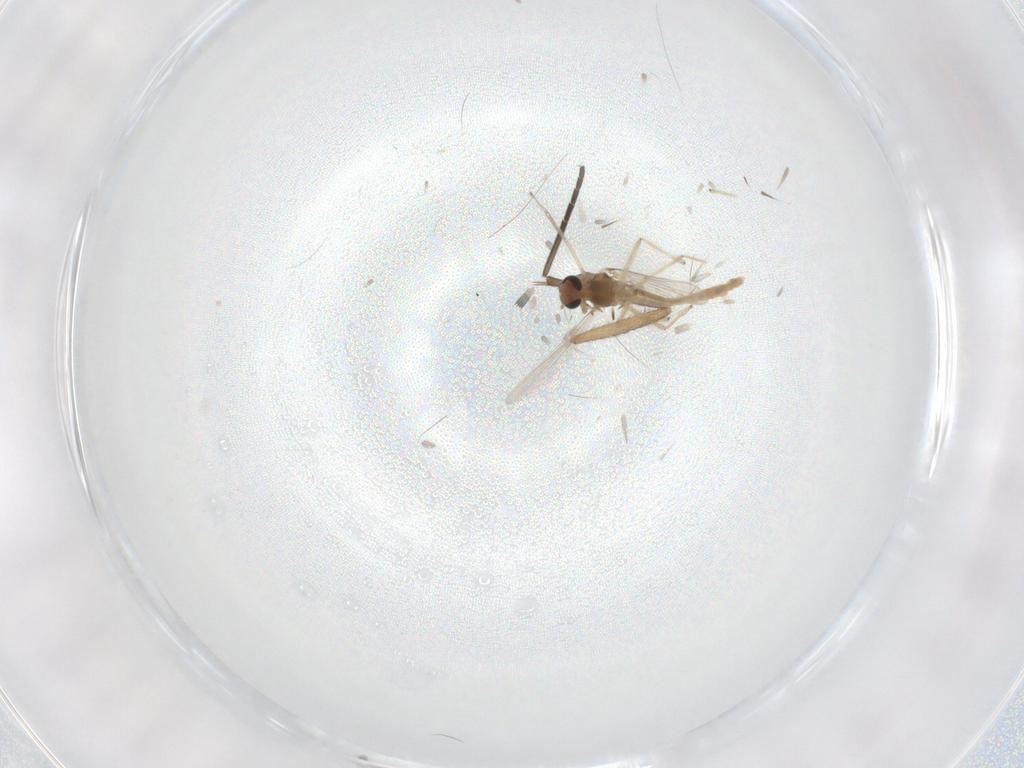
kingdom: Animalia
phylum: Arthropoda
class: Insecta
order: Diptera
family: Chironomidae
